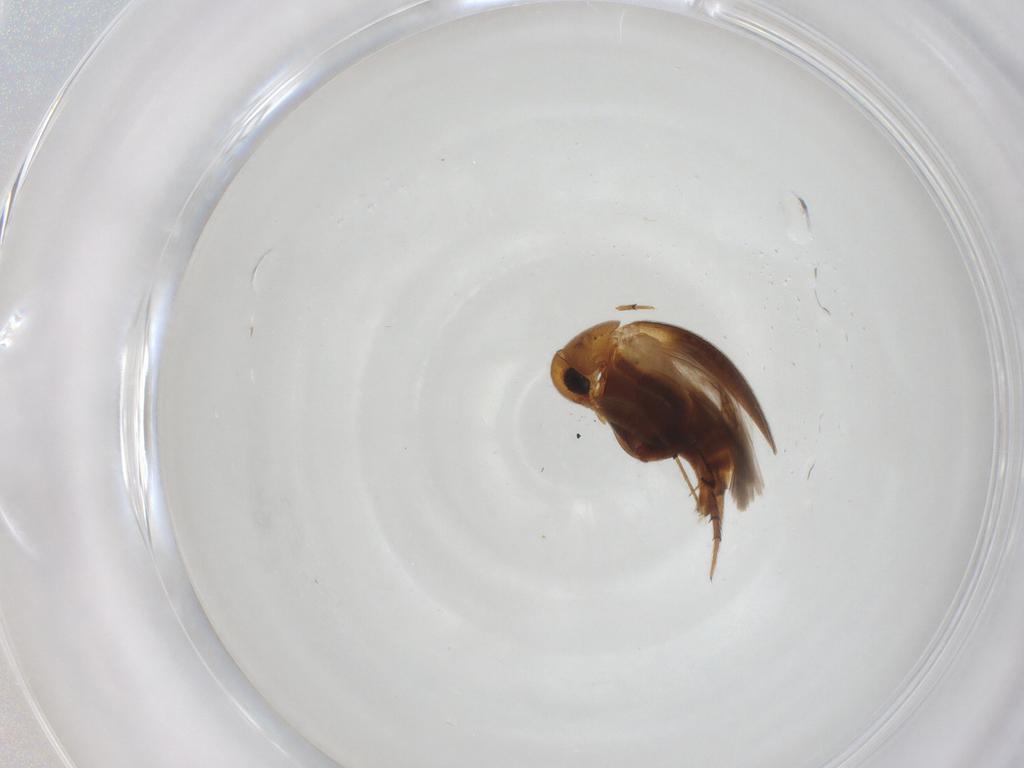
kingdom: Animalia
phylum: Arthropoda
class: Insecta
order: Coleoptera
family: Mordellidae
